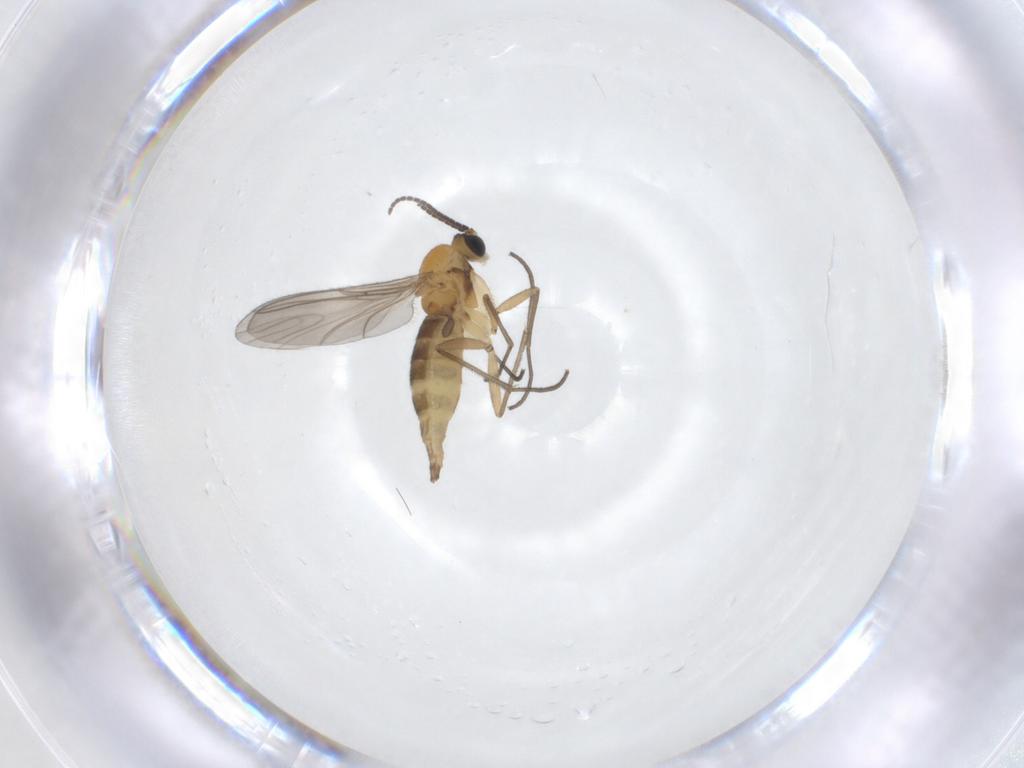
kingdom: Animalia
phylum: Arthropoda
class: Insecta
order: Diptera
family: Sciaridae
